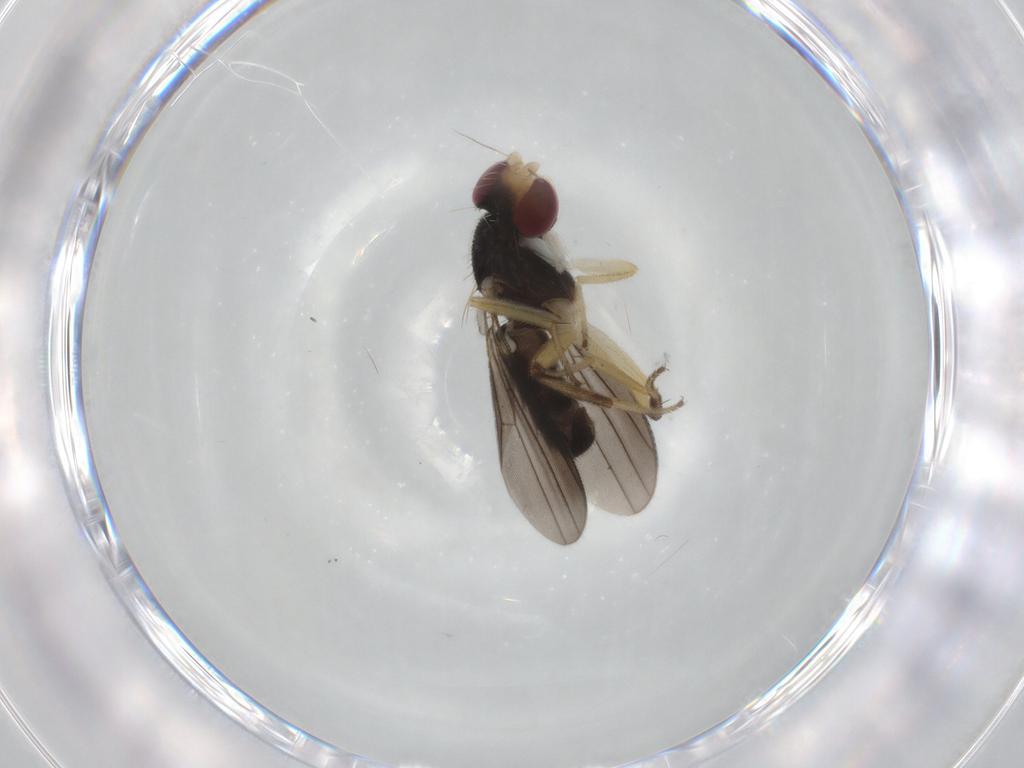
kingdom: Animalia
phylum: Arthropoda
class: Insecta
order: Diptera
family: Clusiidae
